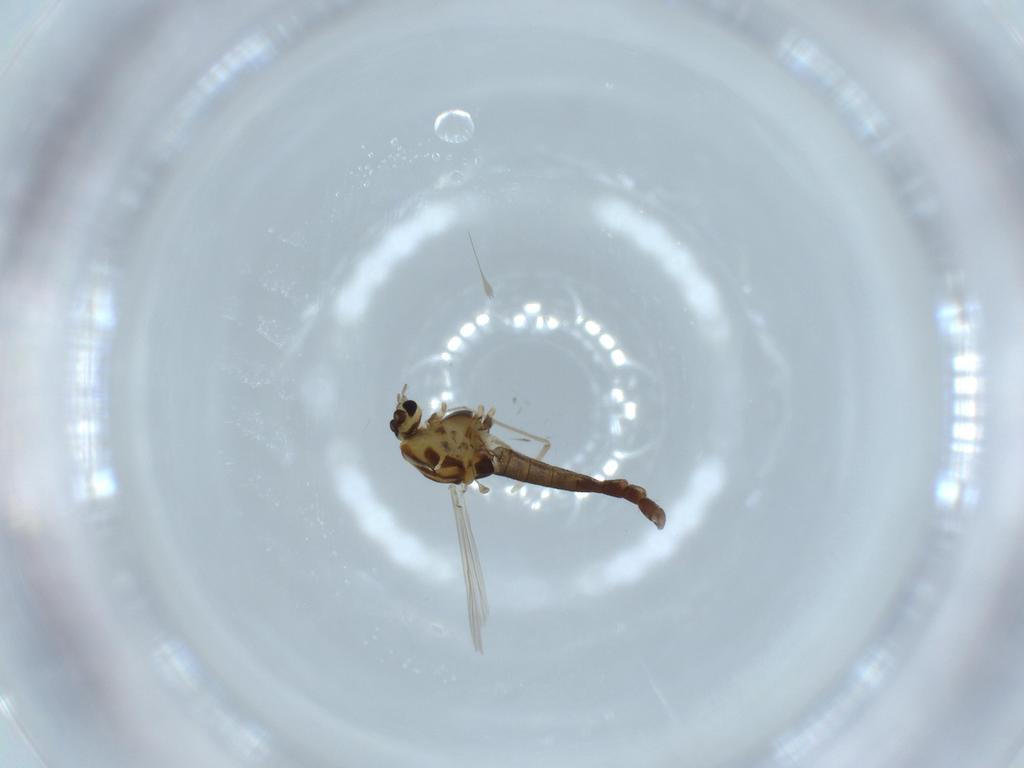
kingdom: Animalia
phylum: Arthropoda
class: Insecta
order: Diptera
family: Chironomidae
